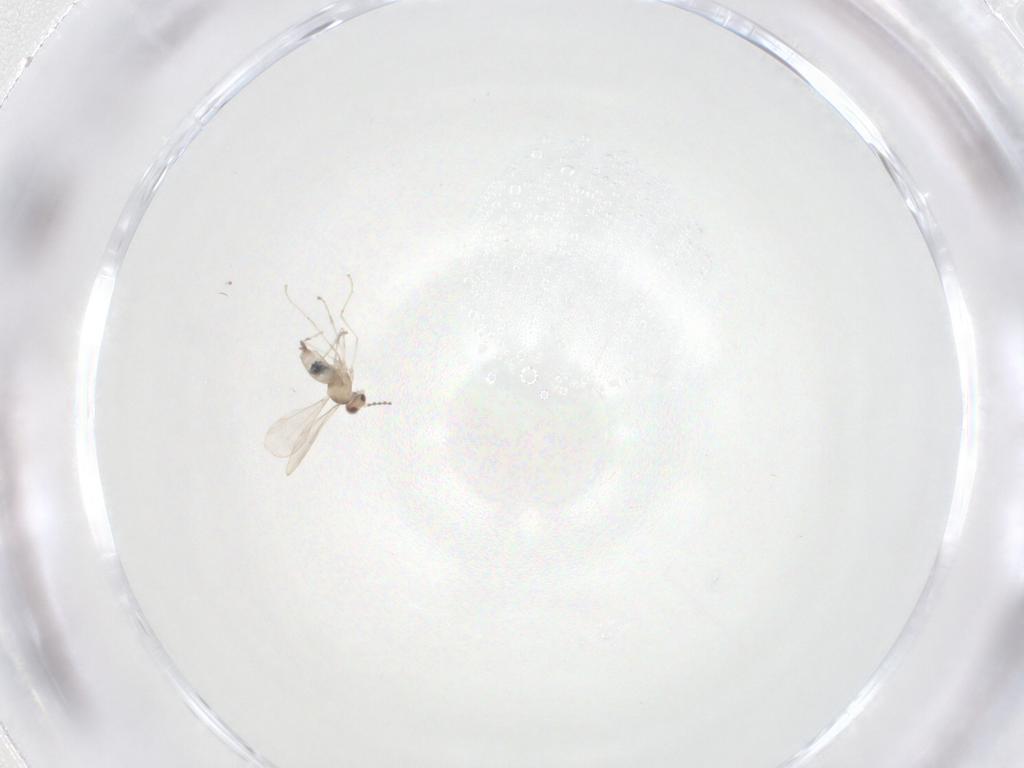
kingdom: Animalia
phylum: Arthropoda
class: Insecta
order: Diptera
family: Cecidomyiidae
